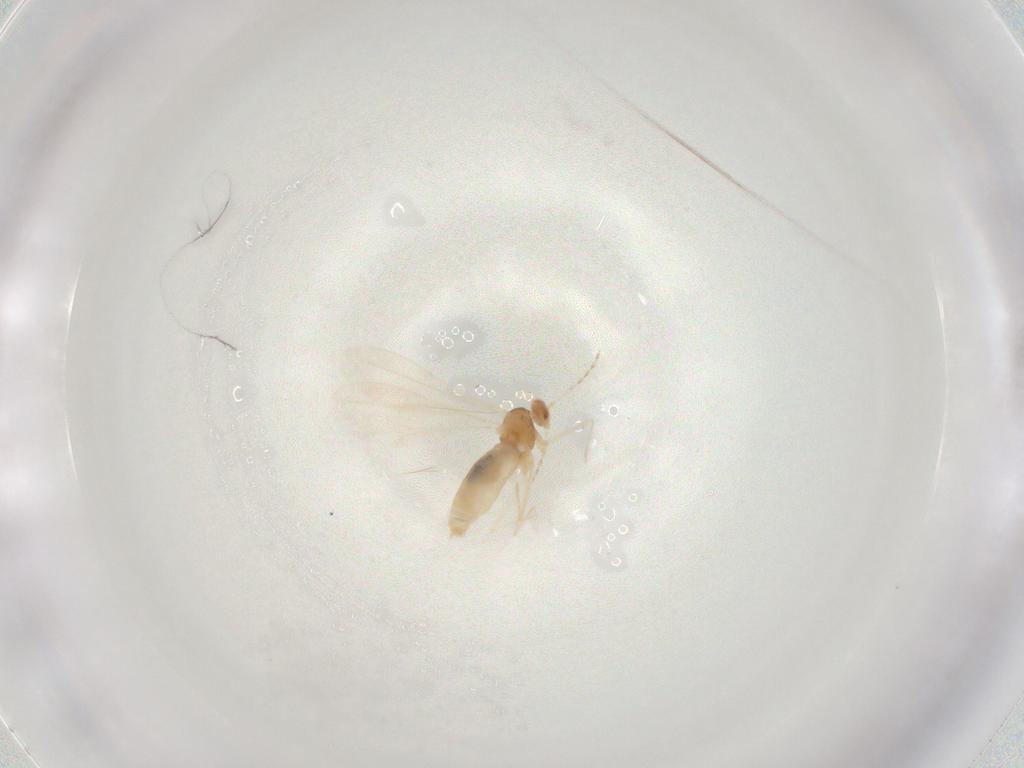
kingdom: Animalia
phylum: Arthropoda
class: Insecta
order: Diptera
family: Cecidomyiidae
